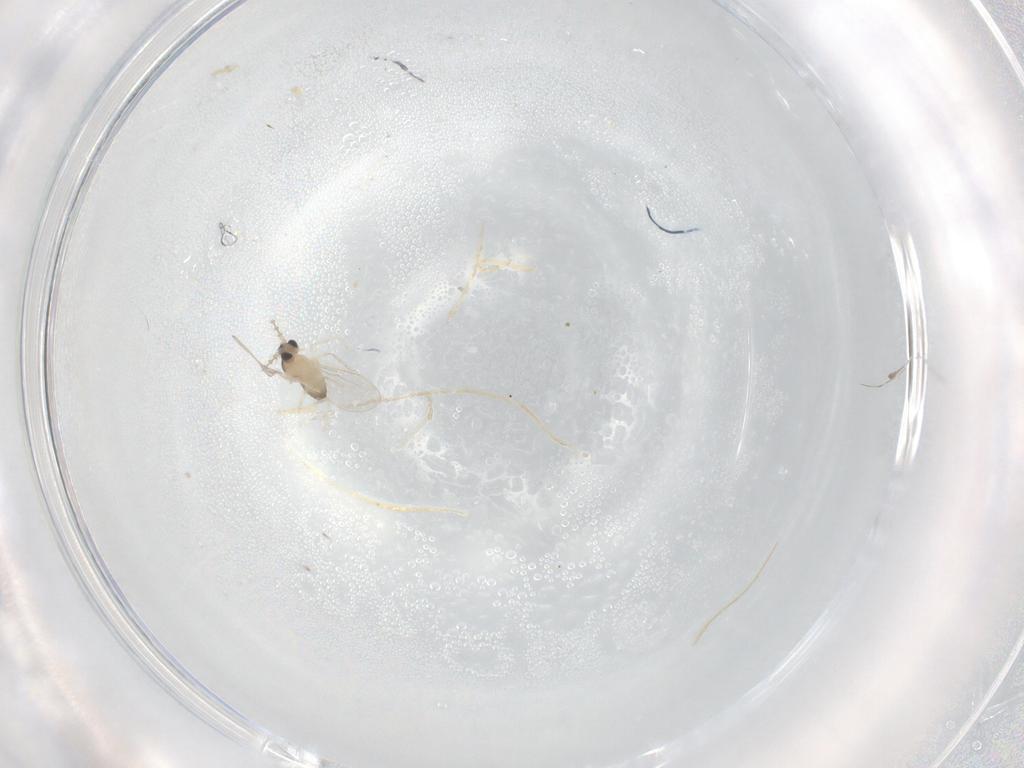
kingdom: Animalia
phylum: Arthropoda
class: Insecta
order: Diptera
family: Cecidomyiidae
